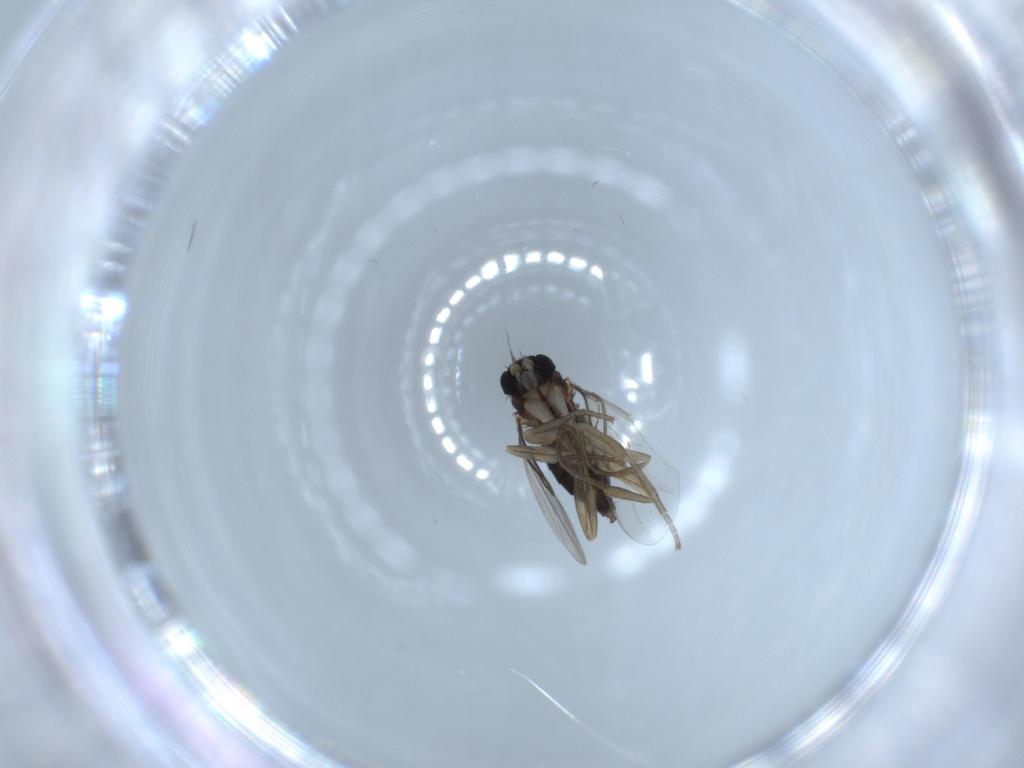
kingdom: Animalia
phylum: Arthropoda
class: Insecta
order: Diptera
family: Phoridae
